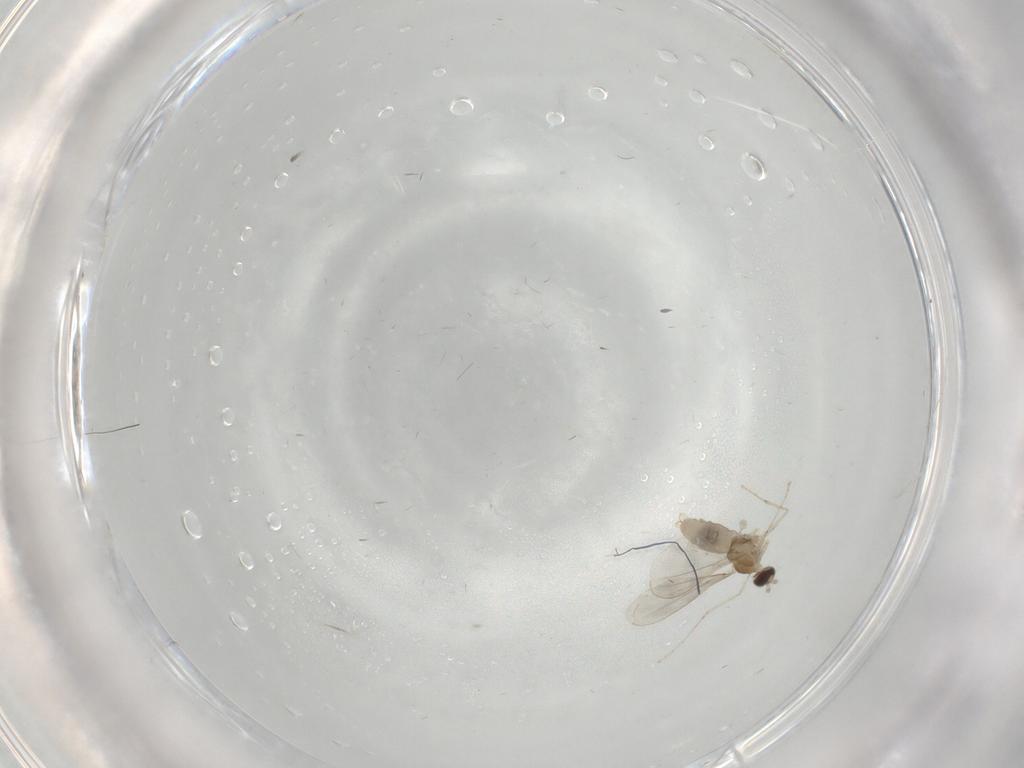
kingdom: Animalia
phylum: Arthropoda
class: Insecta
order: Diptera
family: Cecidomyiidae
